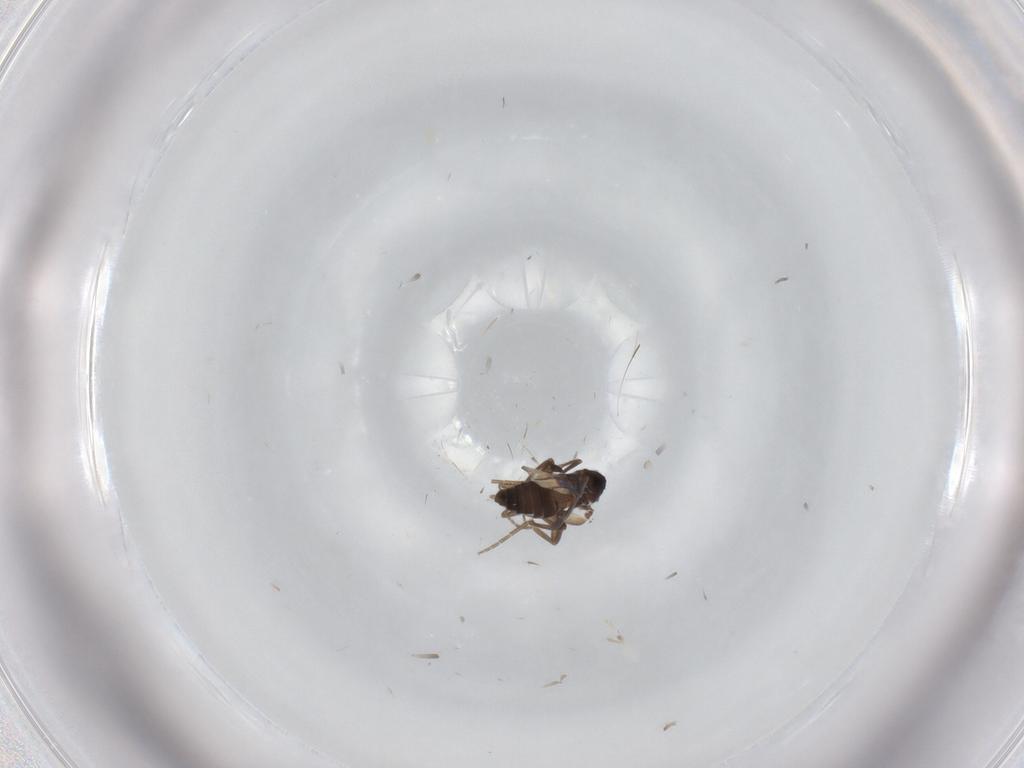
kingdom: Animalia
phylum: Arthropoda
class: Insecta
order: Diptera
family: Phoridae
